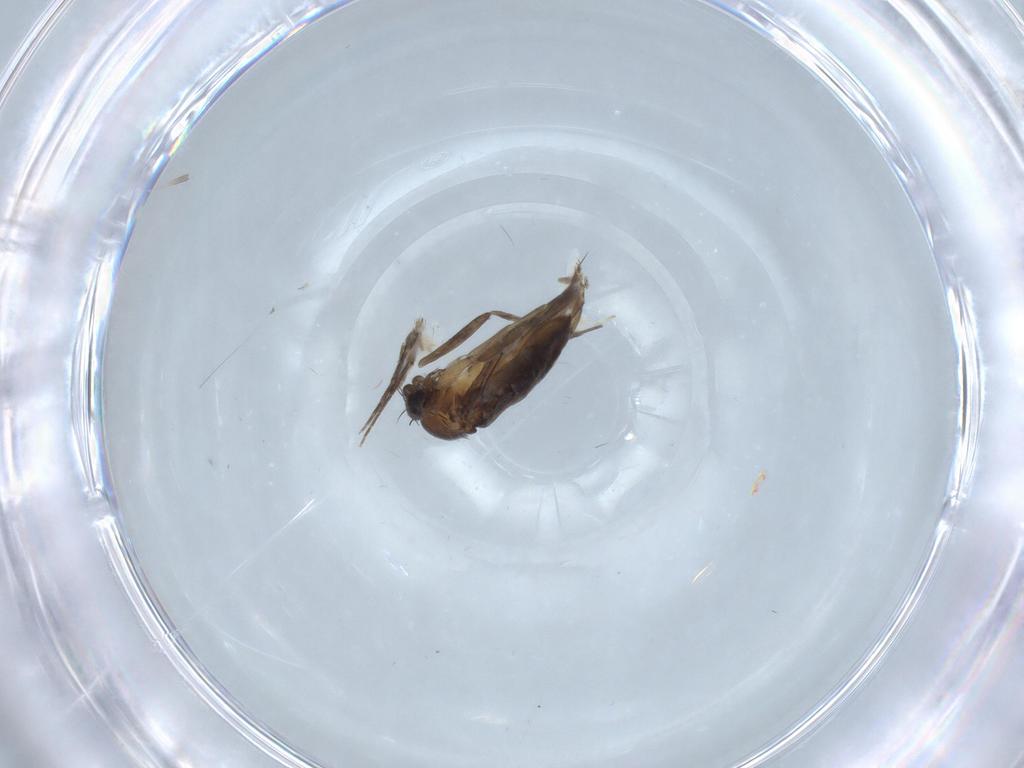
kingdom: Animalia
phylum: Arthropoda
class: Insecta
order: Diptera
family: Phoridae
